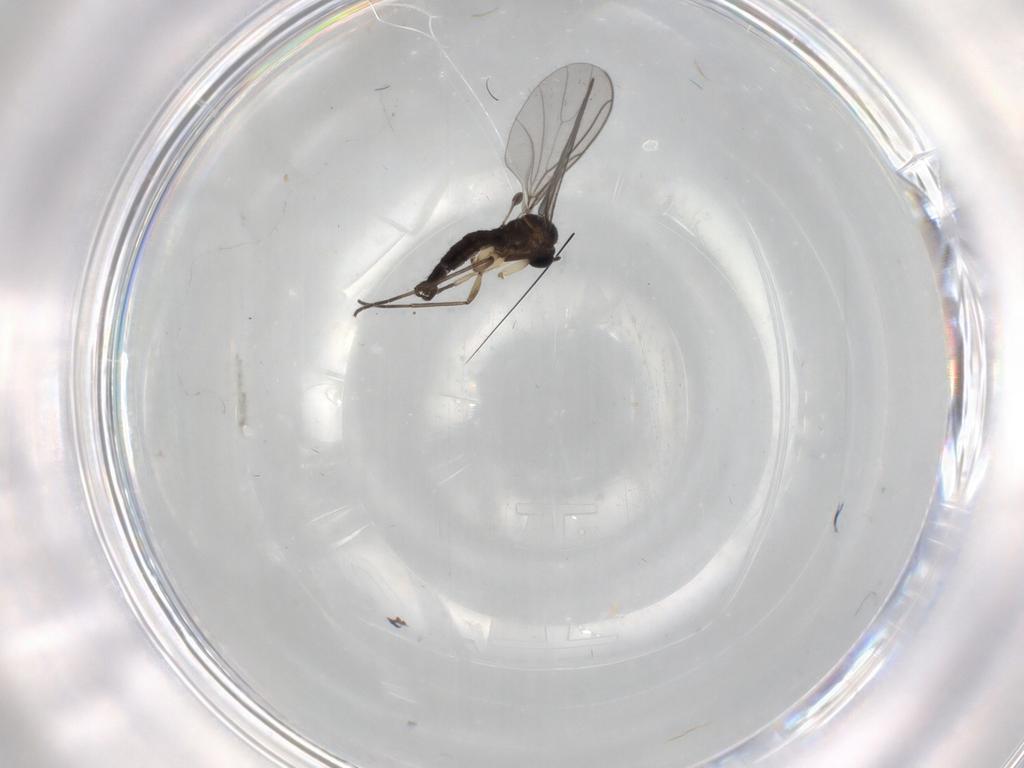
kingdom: Animalia
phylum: Arthropoda
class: Insecta
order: Diptera
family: Sciaridae
